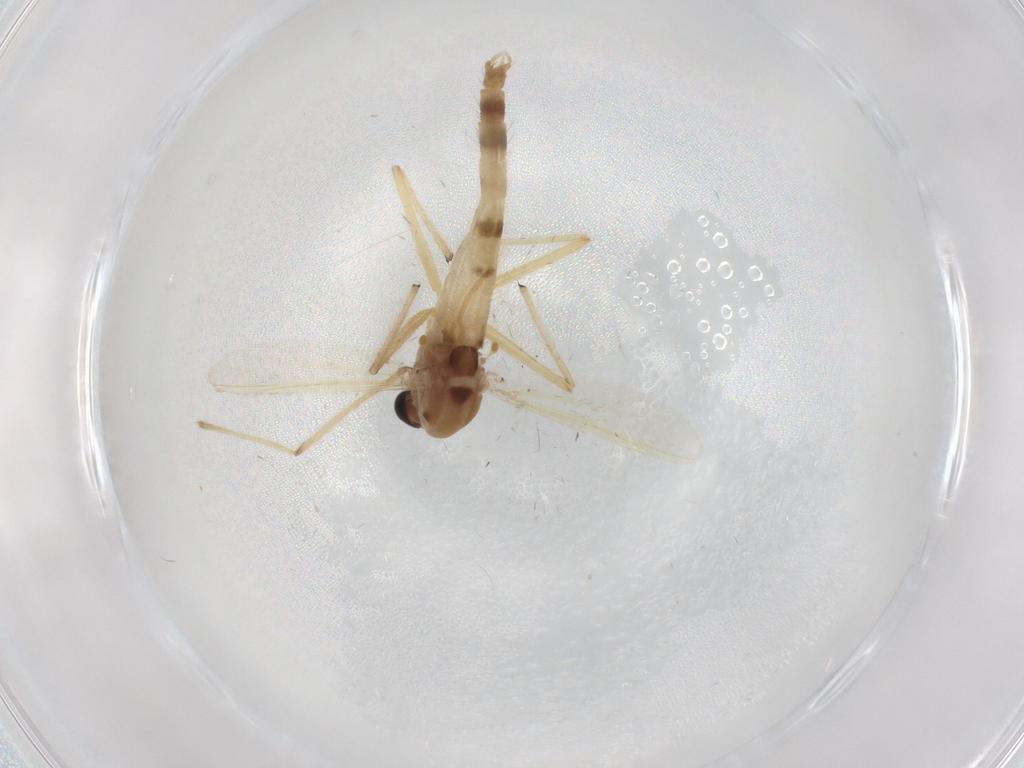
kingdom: Animalia
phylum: Arthropoda
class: Insecta
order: Diptera
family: Chironomidae
